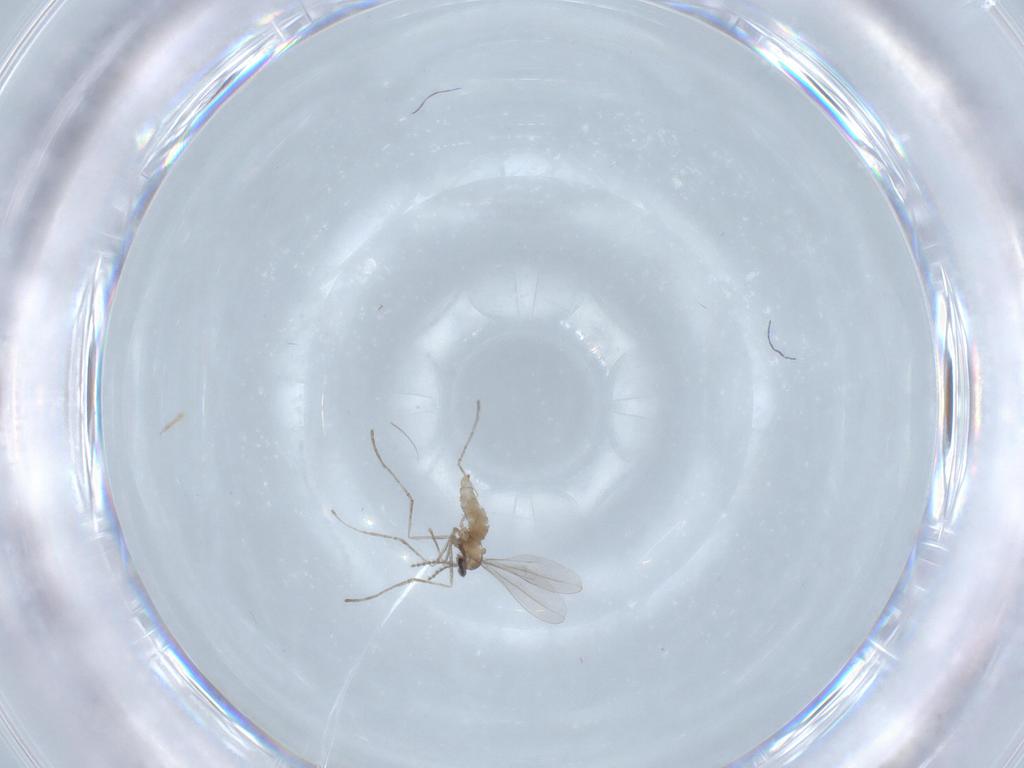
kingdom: Animalia
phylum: Arthropoda
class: Insecta
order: Diptera
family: Cecidomyiidae
